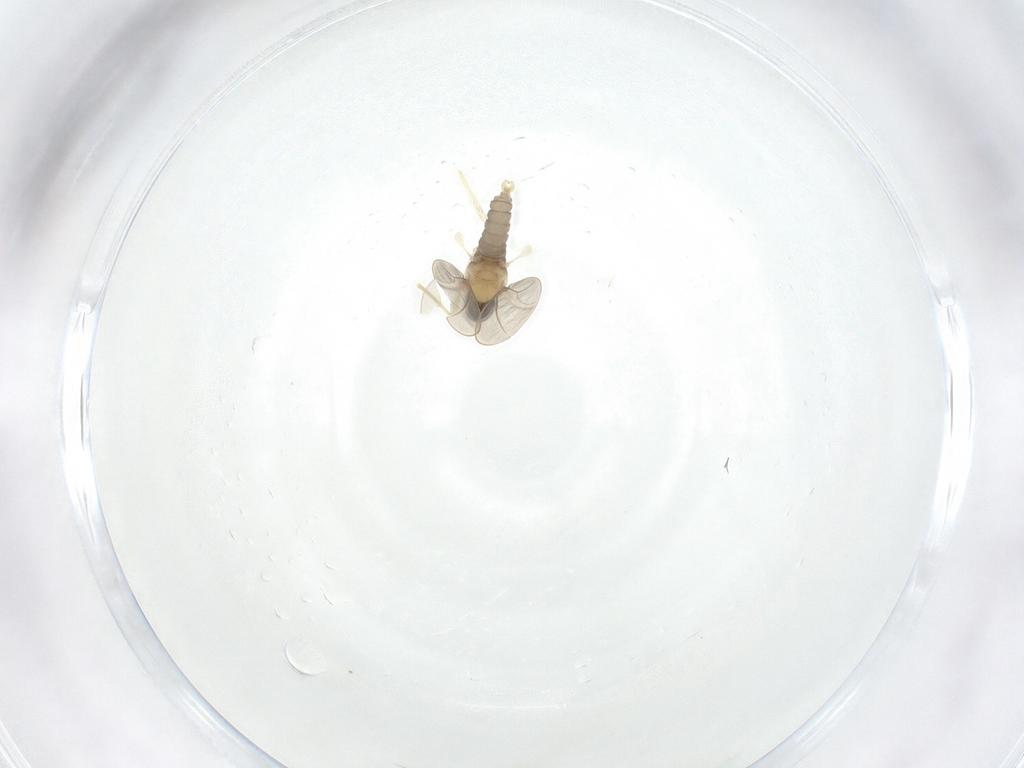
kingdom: Animalia
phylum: Arthropoda
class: Insecta
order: Diptera
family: Cecidomyiidae
